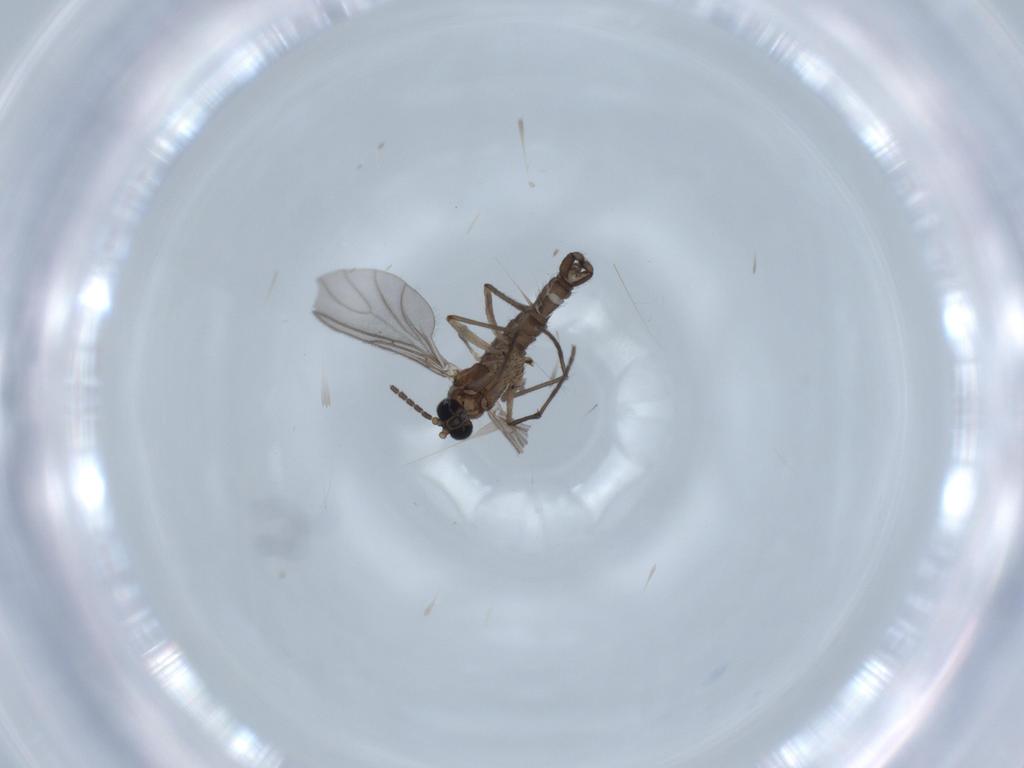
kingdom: Animalia
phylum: Arthropoda
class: Insecta
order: Diptera
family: Sciaridae
